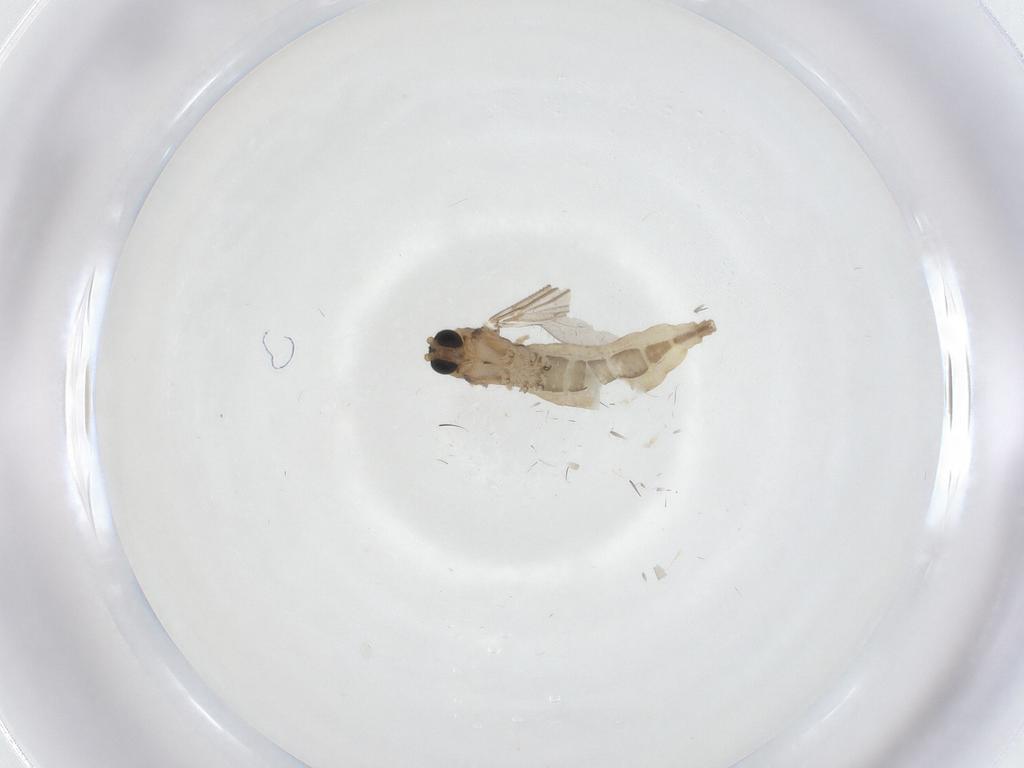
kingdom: Animalia
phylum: Arthropoda
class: Insecta
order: Diptera
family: Sciaridae
